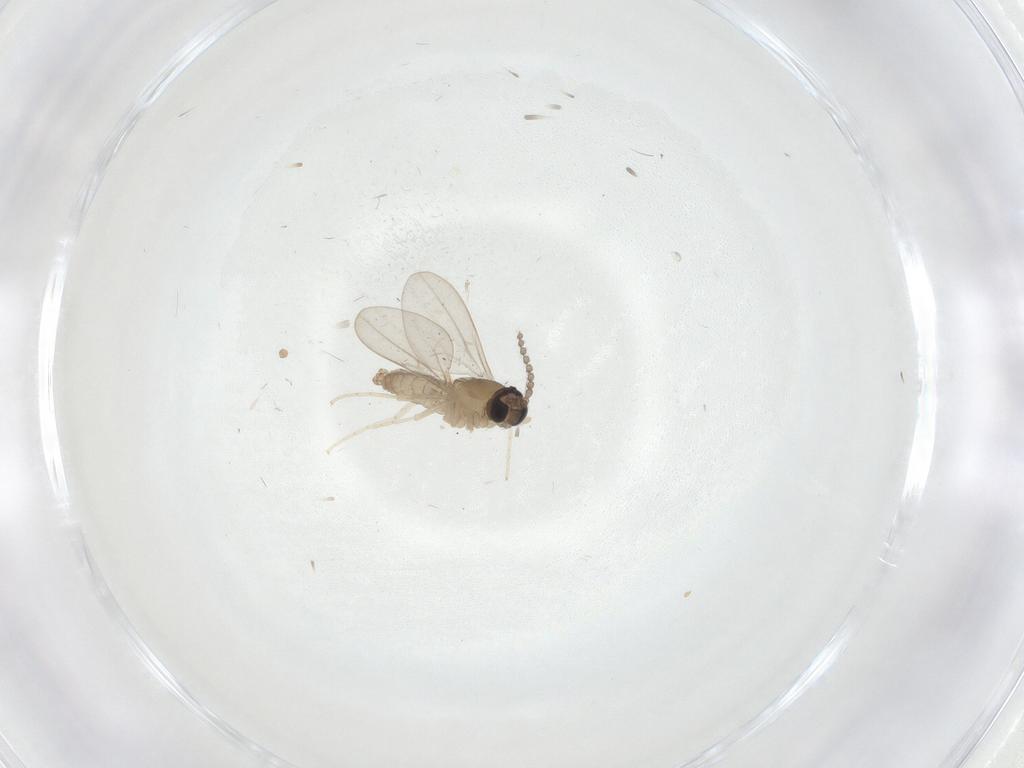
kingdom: Animalia
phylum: Arthropoda
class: Insecta
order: Diptera
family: Cecidomyiidae
